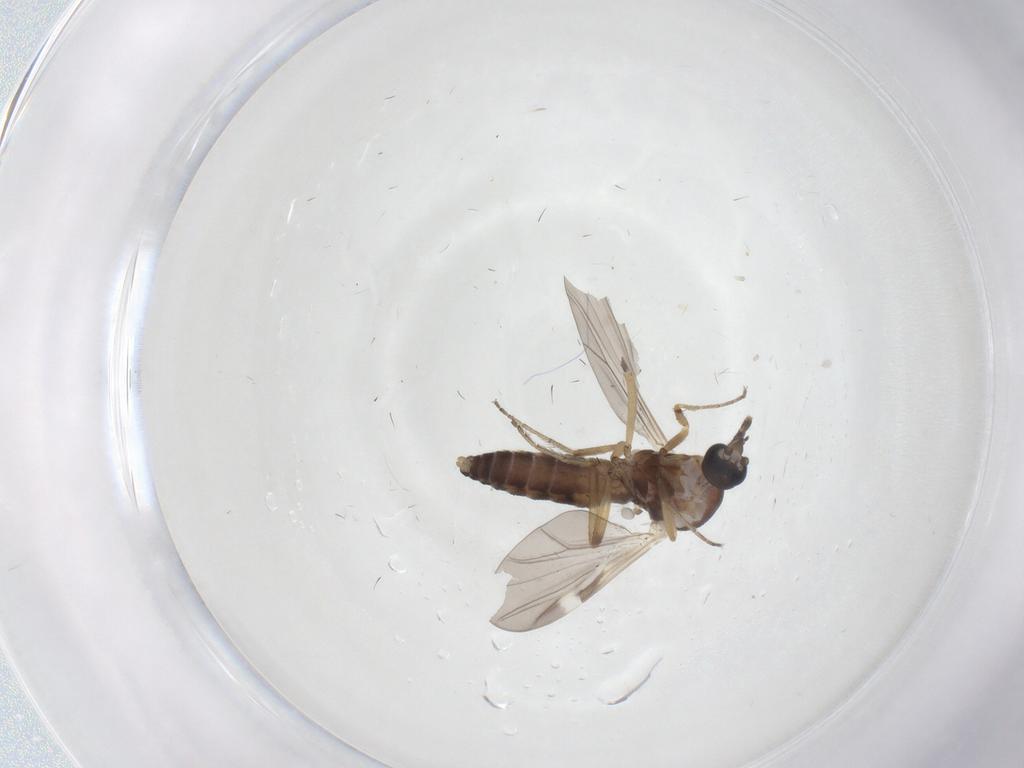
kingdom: Animalia
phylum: Arthropoda
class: Insecta
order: Diptera
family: Ceratopogonidae
